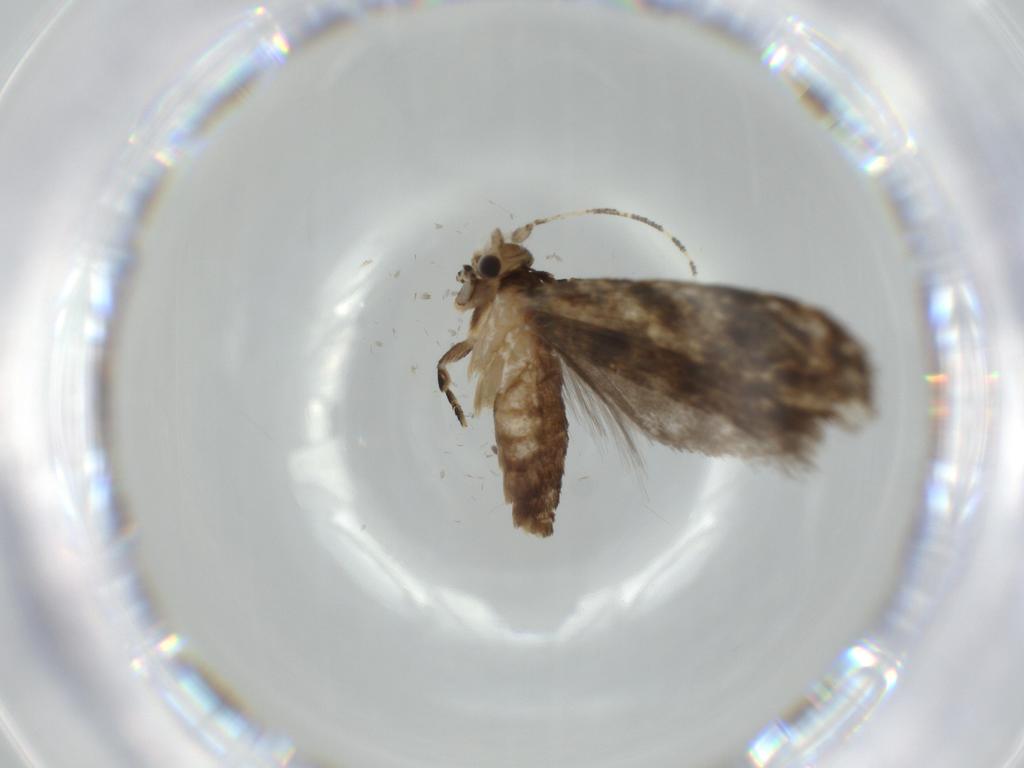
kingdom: Animalia
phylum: Arthropoda
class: Insecta
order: Lepidoptera
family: Tineidae
